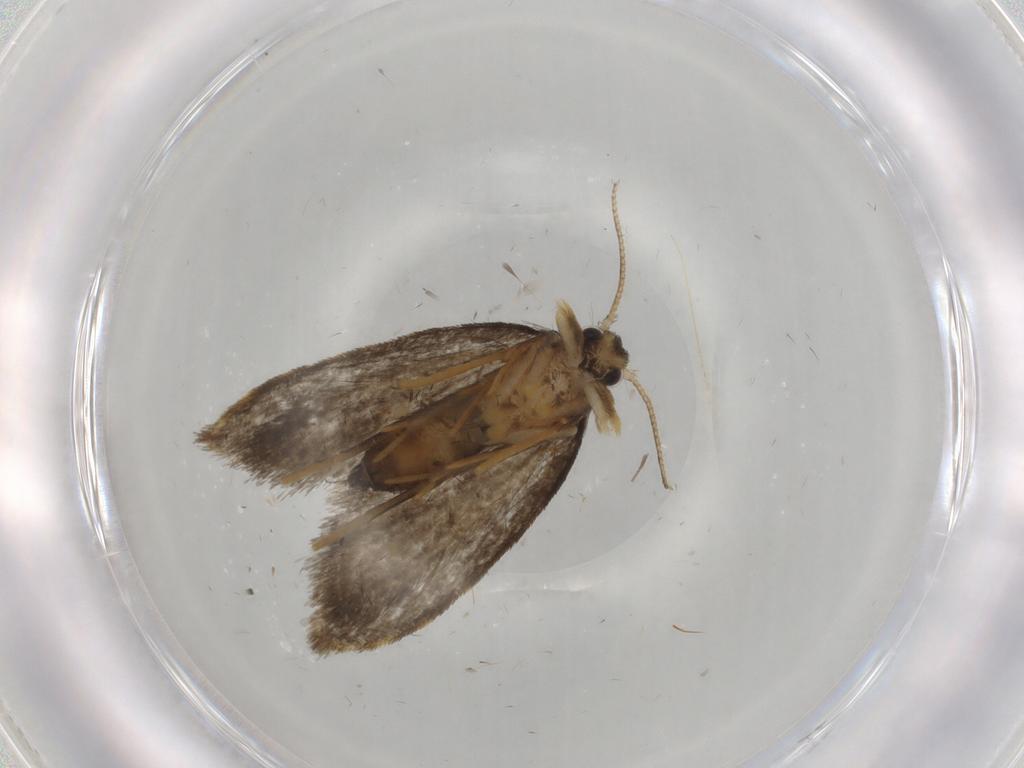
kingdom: Animalia
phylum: Arthropoda
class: Insecta
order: Lepidoptera
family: Psychidae
